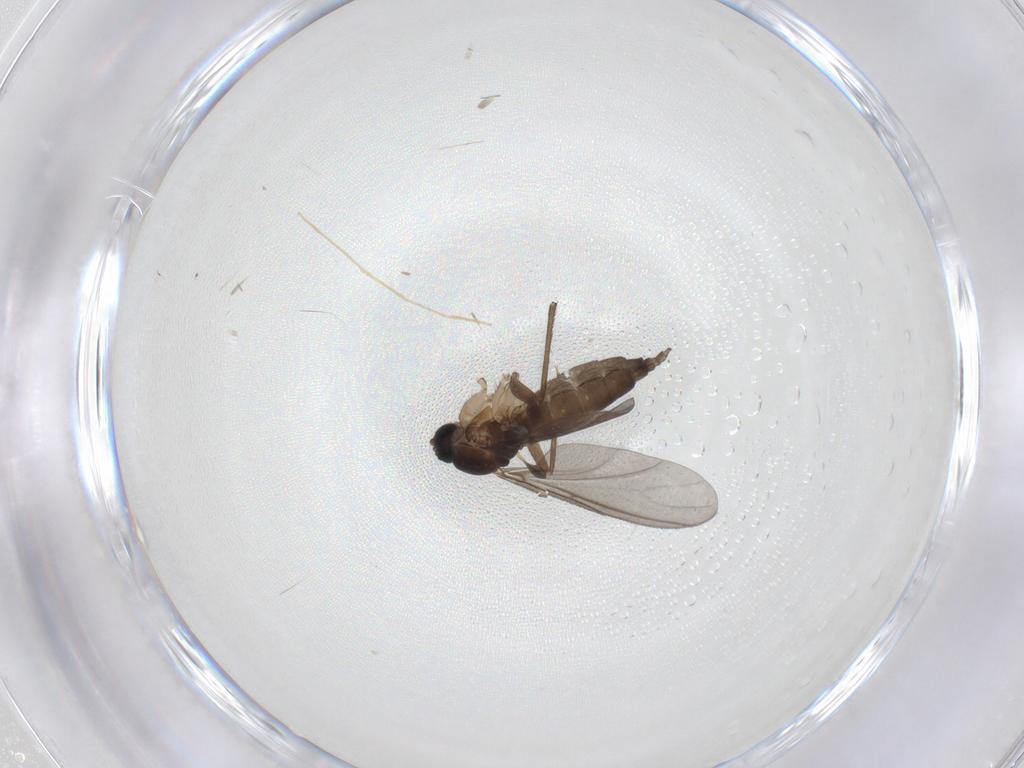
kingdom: Animalia
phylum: Arthropoda
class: Insecta
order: Diptera
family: Sciaridae
